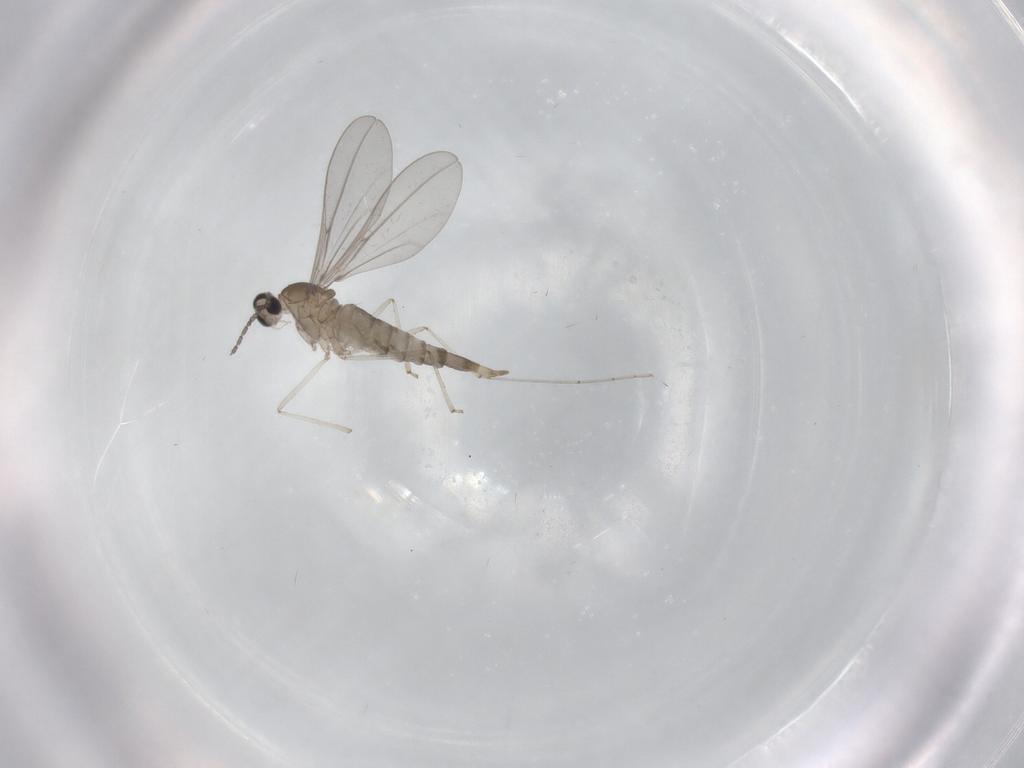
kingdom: Animalia
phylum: Arthropoda
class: Insecta
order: Diptera
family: Cecidomyiidae
